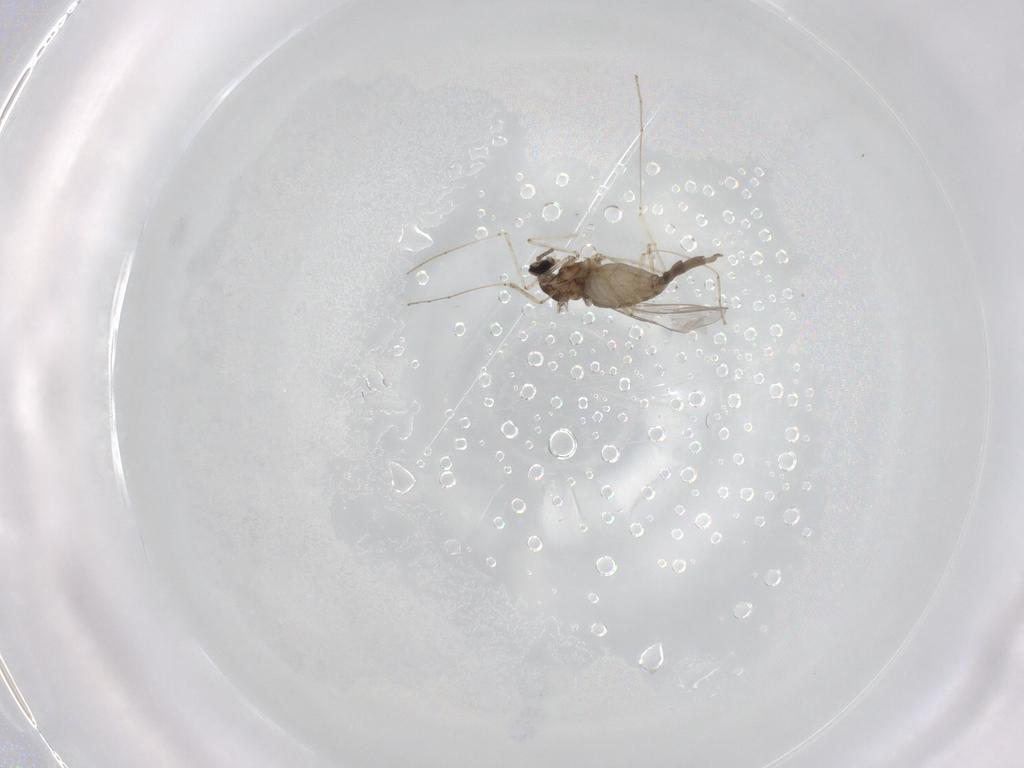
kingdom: Animalia
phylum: Arthropoda
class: Insecta
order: Diptera
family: Cecidomyiidae
